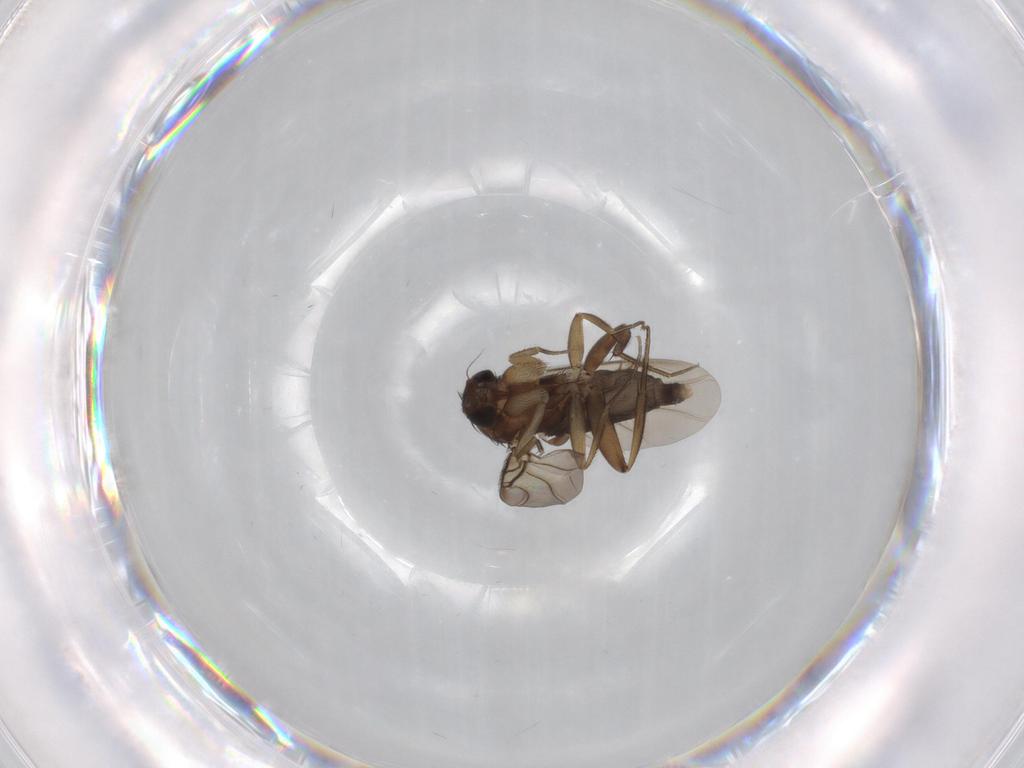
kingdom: Animalia
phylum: Arthropoda
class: Insecta
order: Diptera
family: Phoridae
